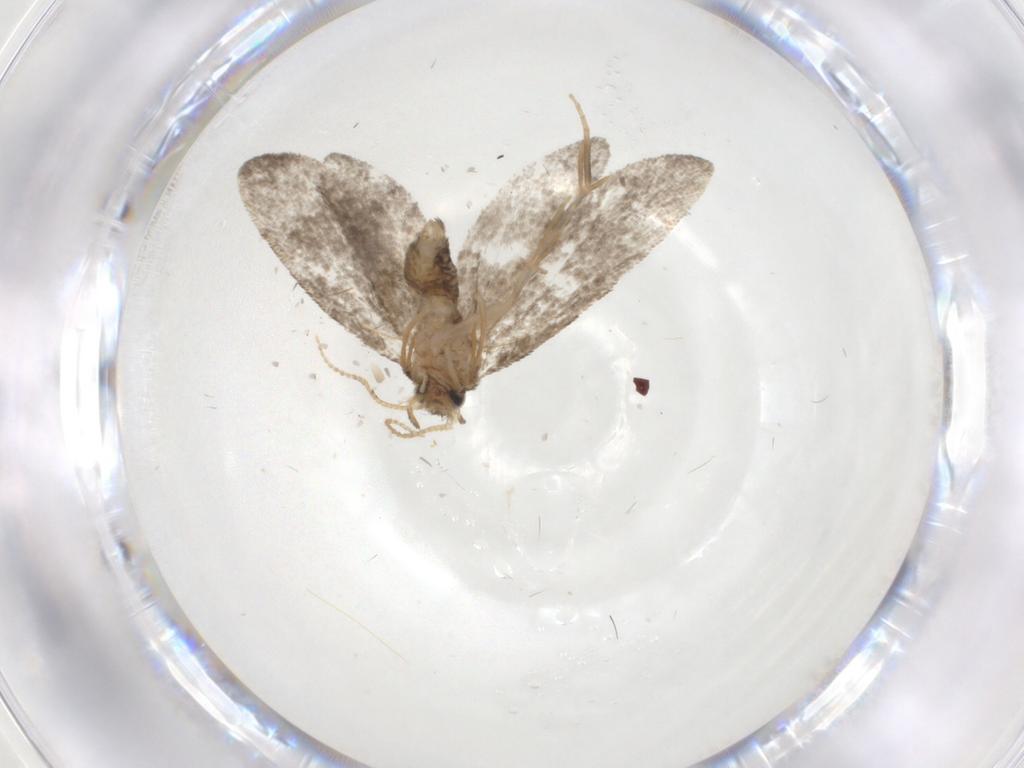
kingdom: Animalia
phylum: Arthropoda
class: Insecta
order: Lepidoptera
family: Psychidae
